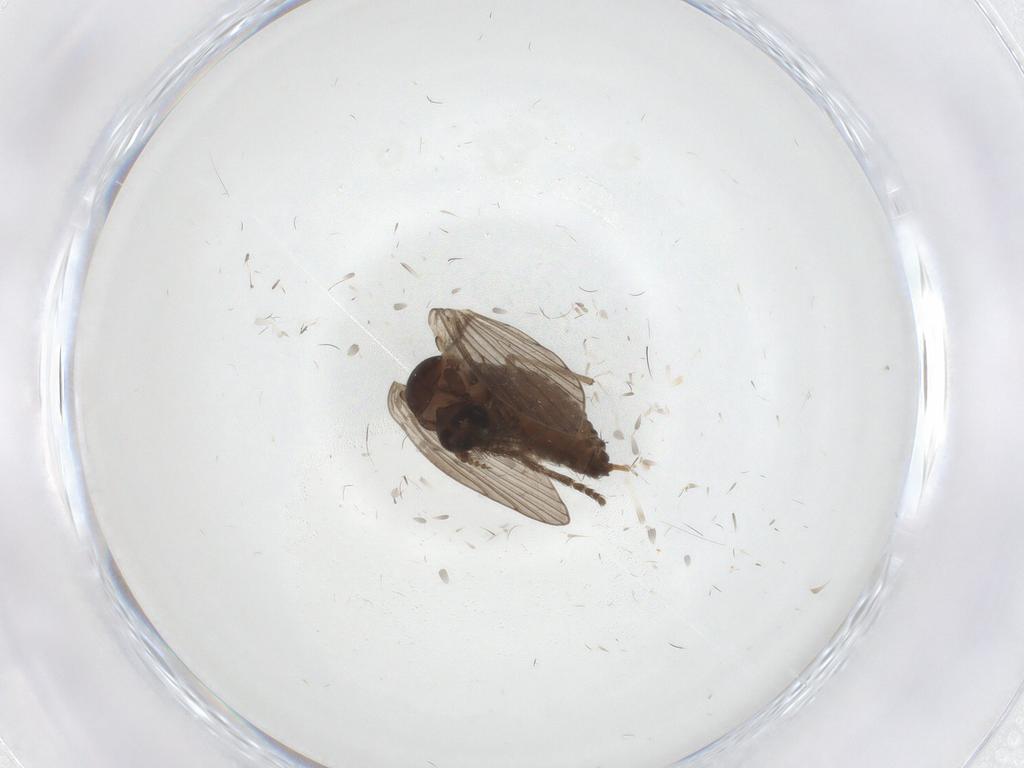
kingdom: Animalia
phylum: Arthropoda
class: Insecta
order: Diptera
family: Psychodidae
